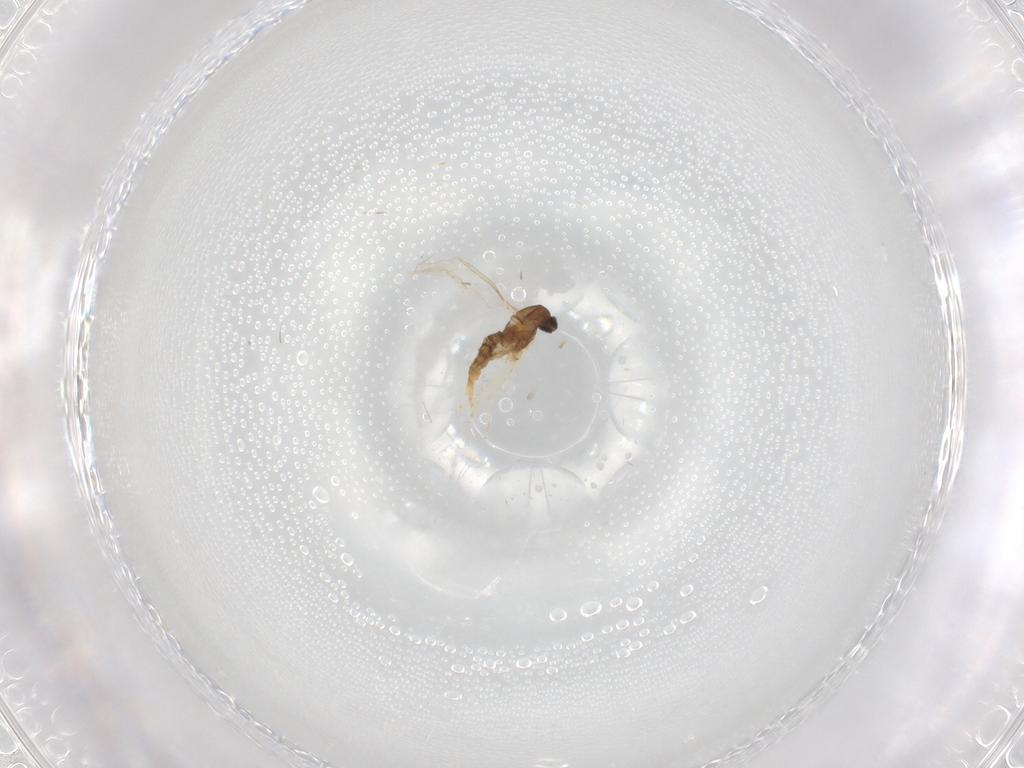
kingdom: Animalia
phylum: Arthropoda
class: Insecta
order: Diptera
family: Cecidomyiidae
